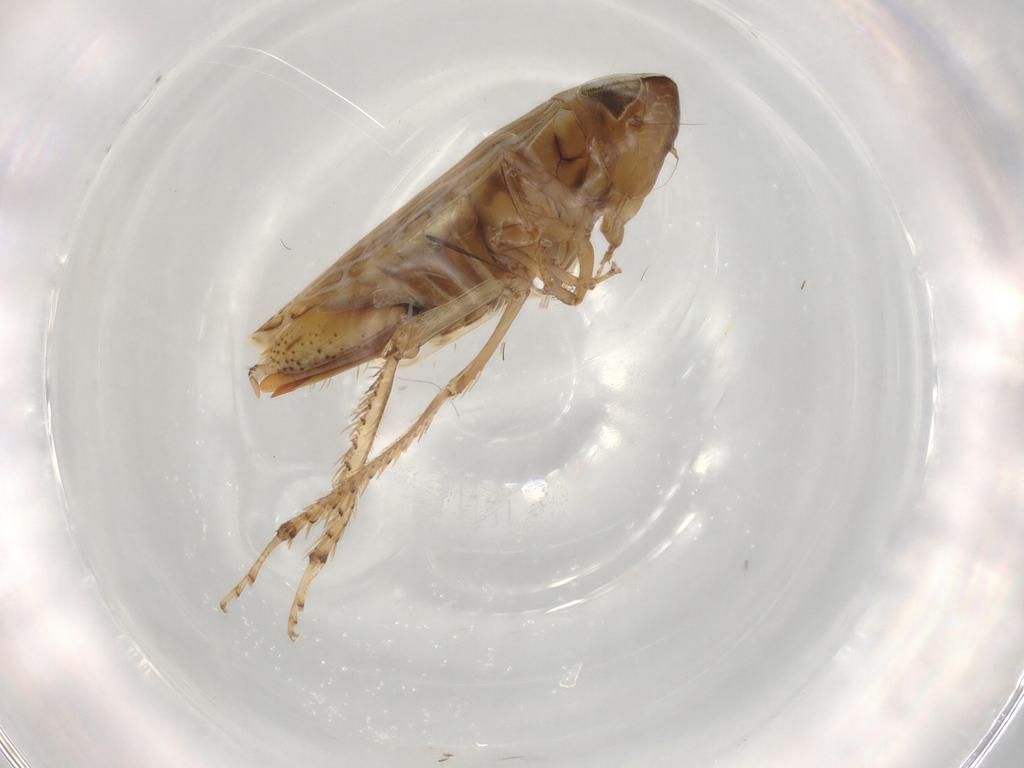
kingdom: Animalia
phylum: Arthropoda
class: Insecta
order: Hemiptera
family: Cicadellidae
